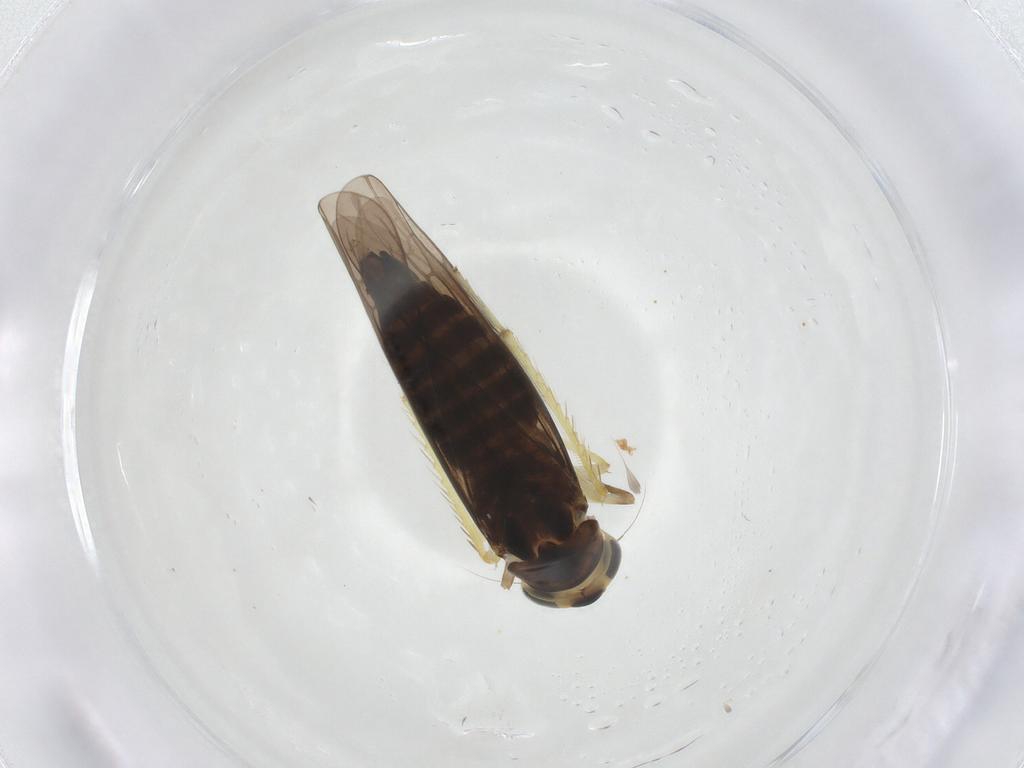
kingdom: Animalia
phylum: Arthropoda
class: Insecta
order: Hemiptera
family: Cicadellidae
